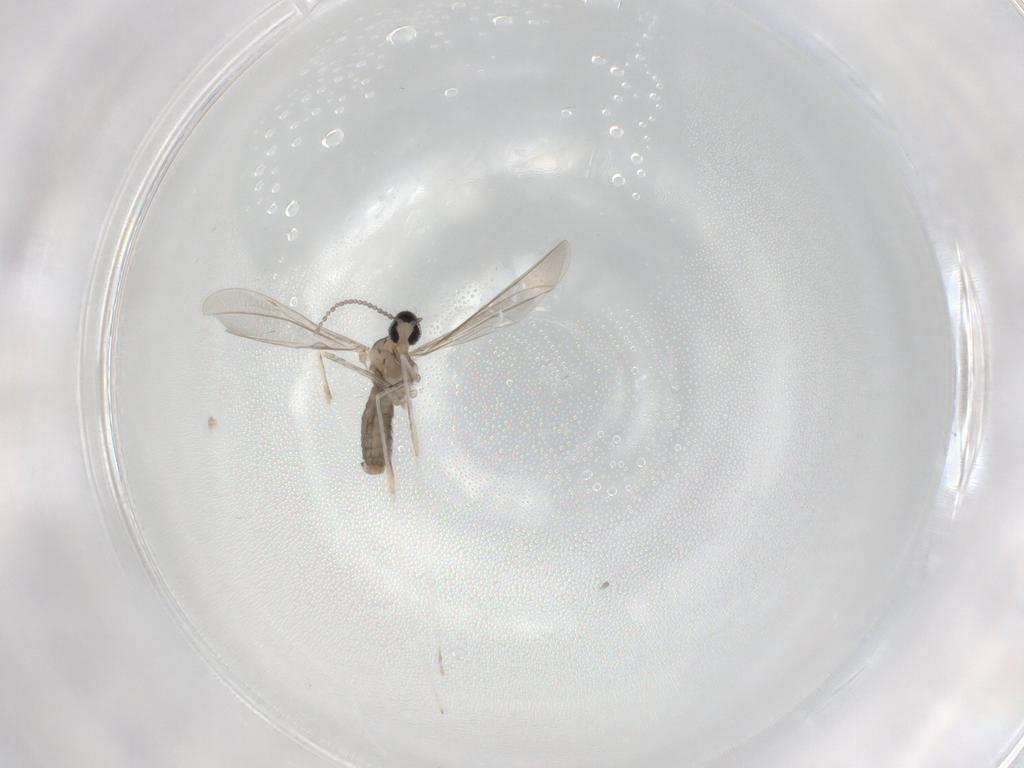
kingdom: Animalia
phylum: Arthropoda
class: Insecta
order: Diptera
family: Cecidomyiidae
